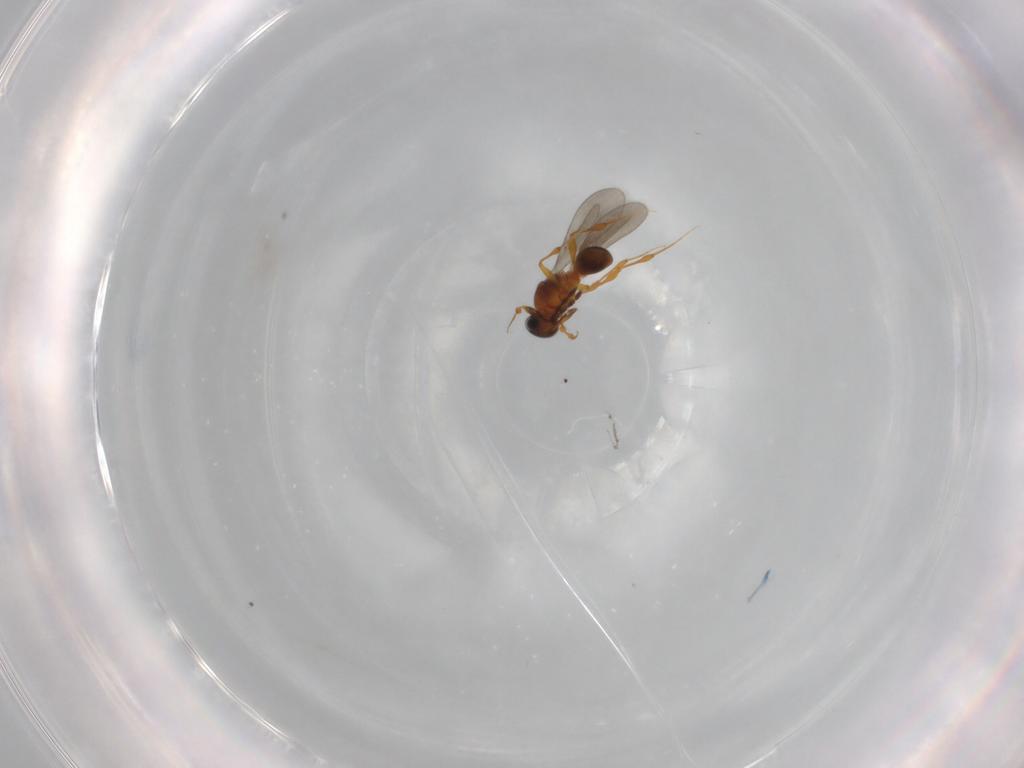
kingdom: Animalia
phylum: Arthropoda
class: Insecta
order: Hymenoptera
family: Platygastridae
